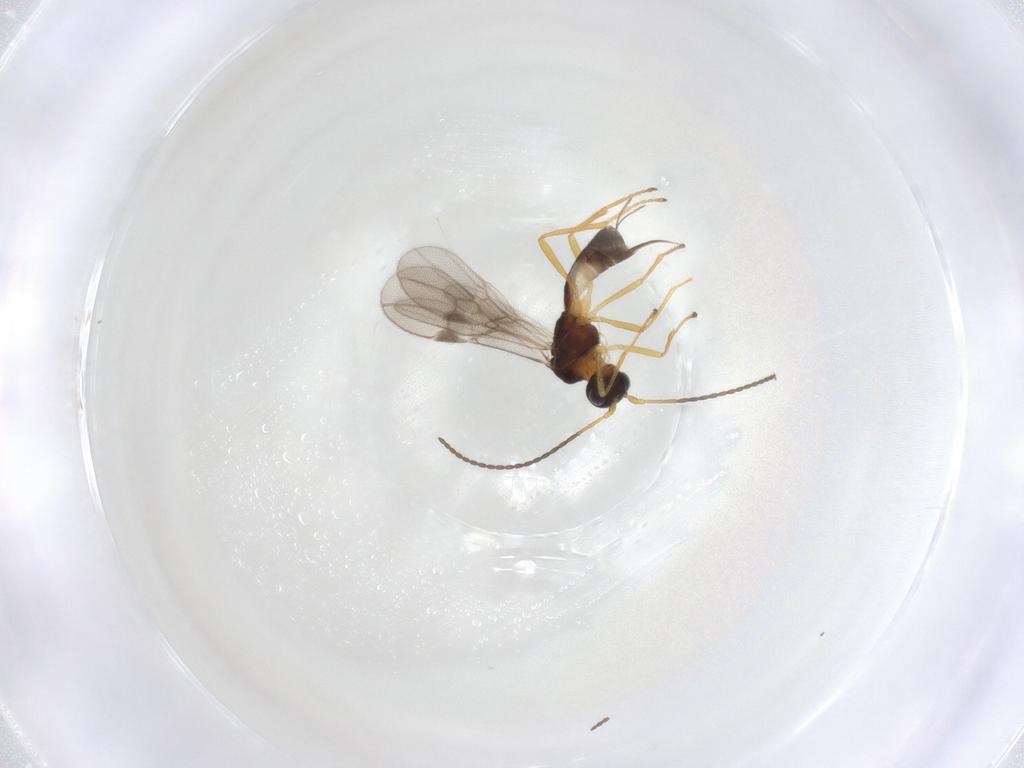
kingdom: Animalia
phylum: Arthropoda
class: Insecta
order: Hymenoptera
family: Braconidae
